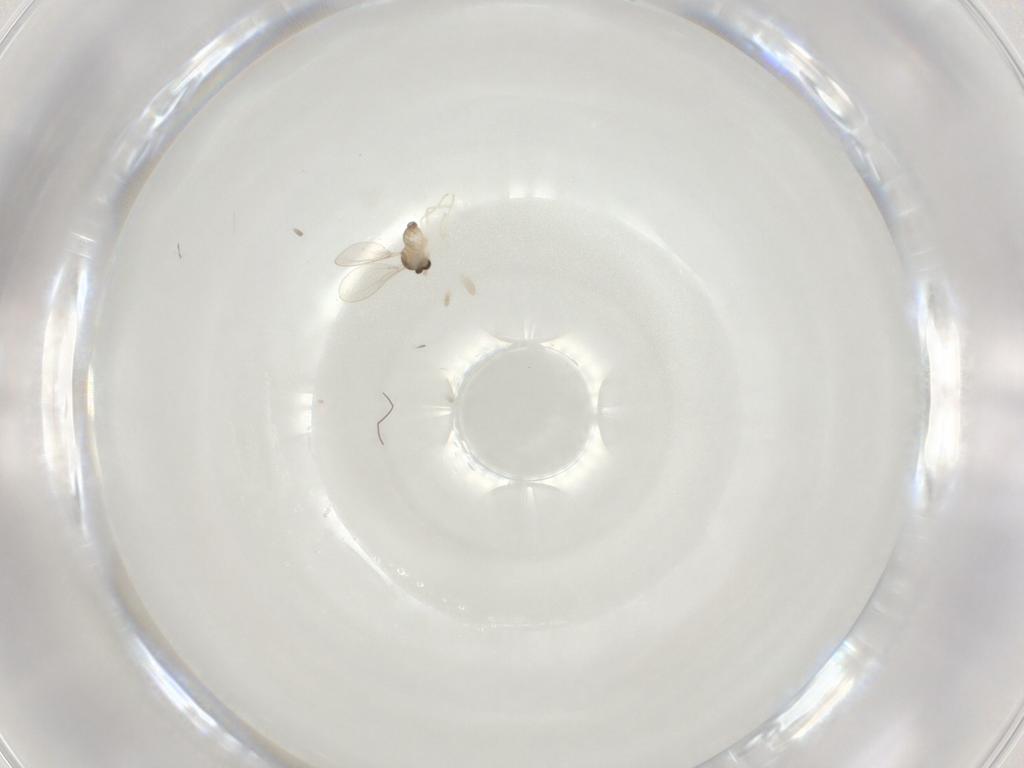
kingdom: Animalia
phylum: Arthropoda
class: Insecta
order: Diptera
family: Cecidomyiidae
